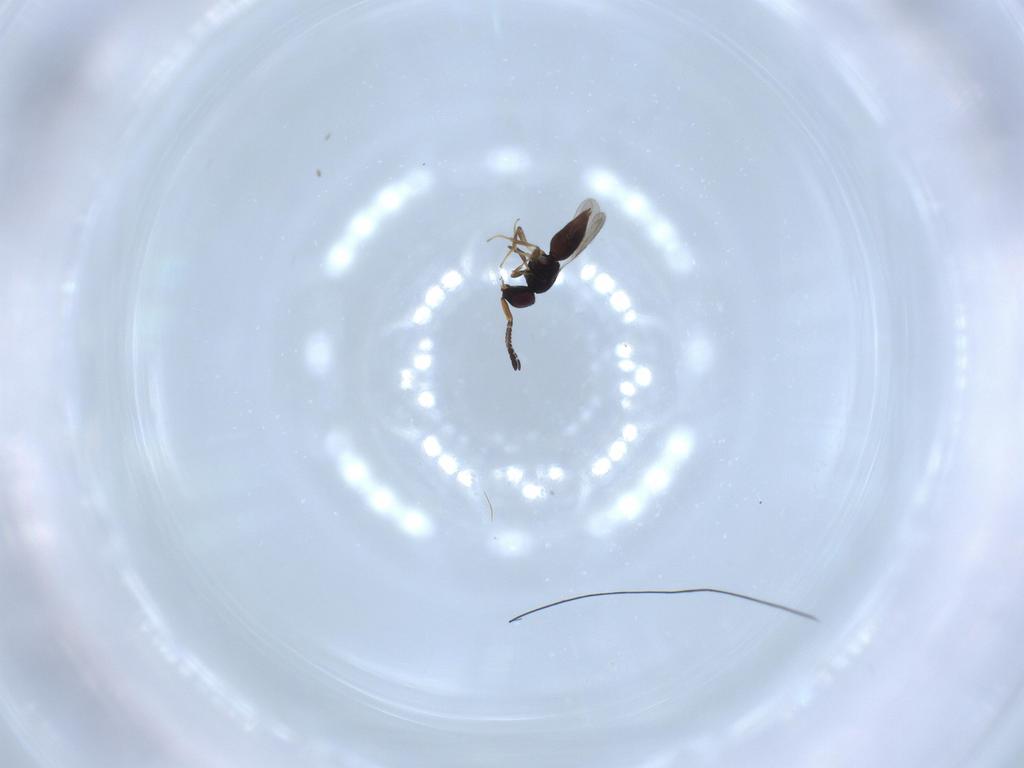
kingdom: Animalia
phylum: Arthropoda
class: Insecta
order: Hymenoptera
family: Ceraphronidae
